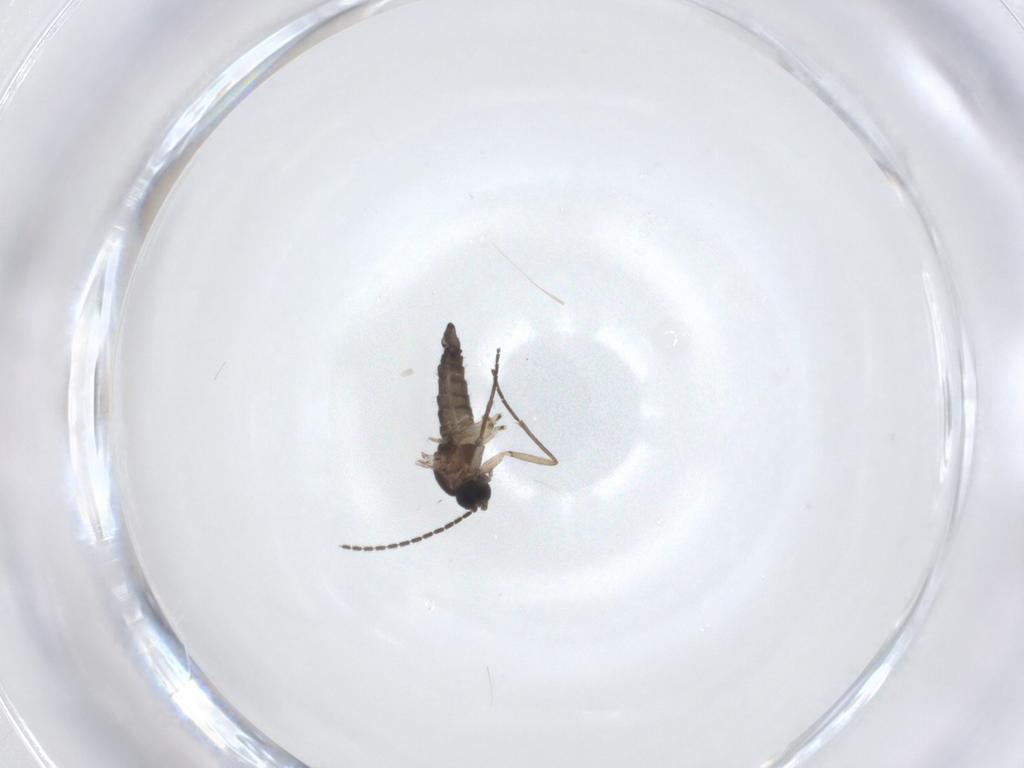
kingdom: Animalia
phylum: Arthropoda
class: Insecta
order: Diptera
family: Sciaridae
